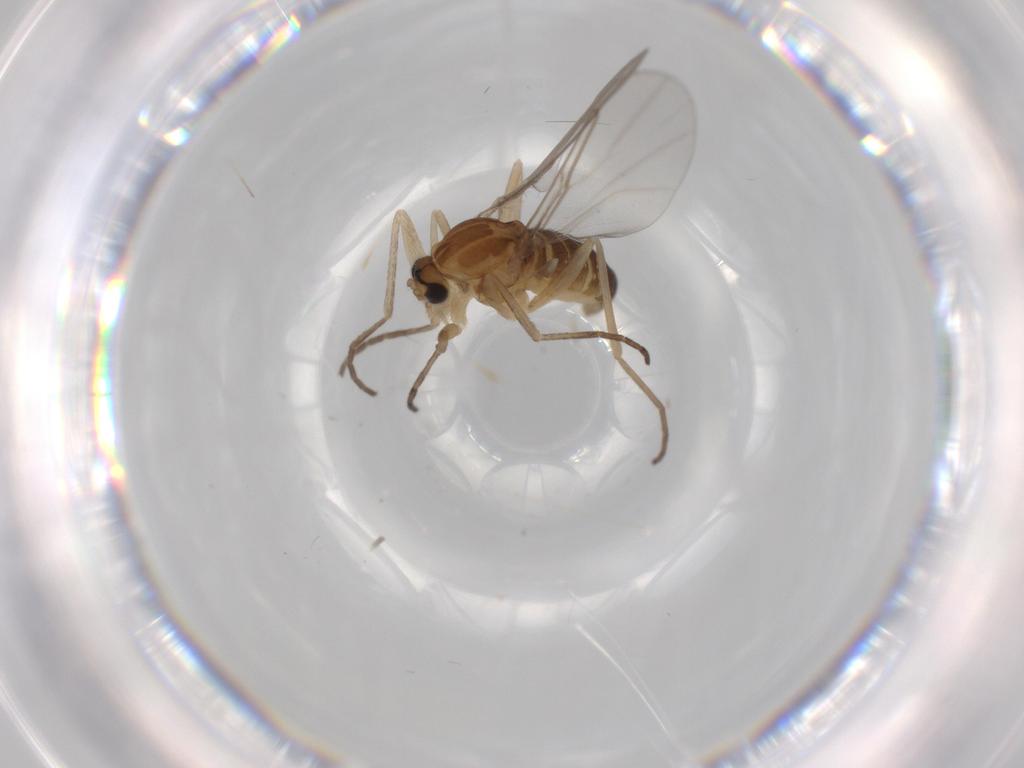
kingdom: Animalia
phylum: Arthropoda
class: Insecta
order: Diptera
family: Cecidomyiidae
